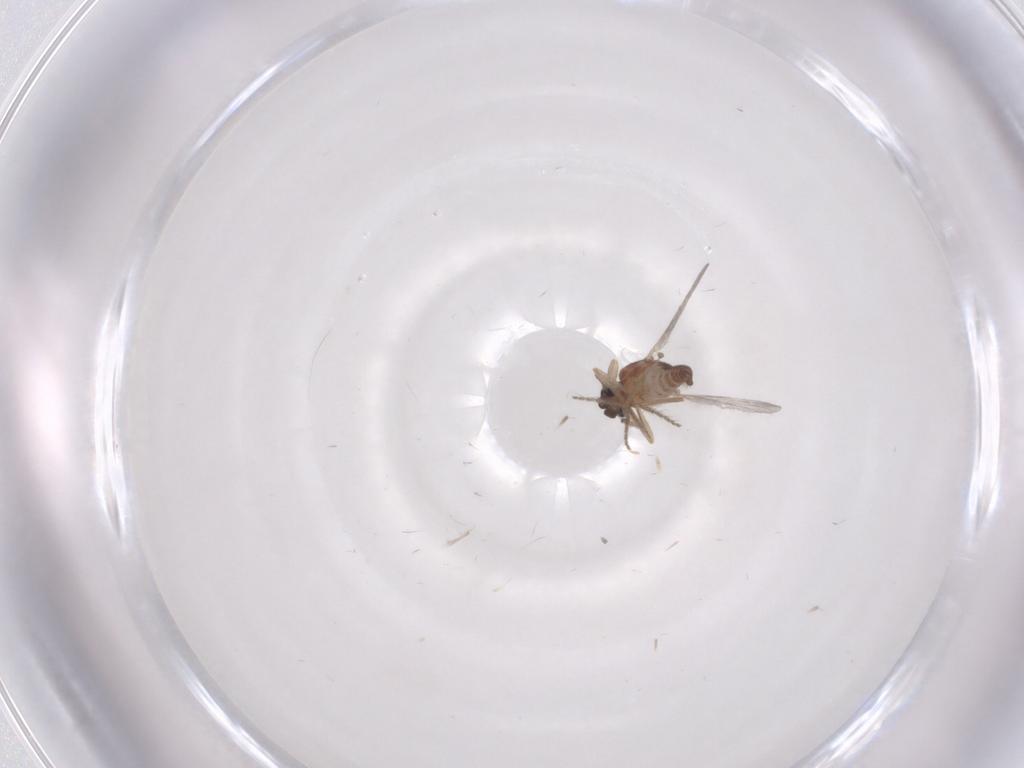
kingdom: Animalia
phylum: Arthropoda
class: Insecta
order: Diptera
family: Ceratopogonidae
